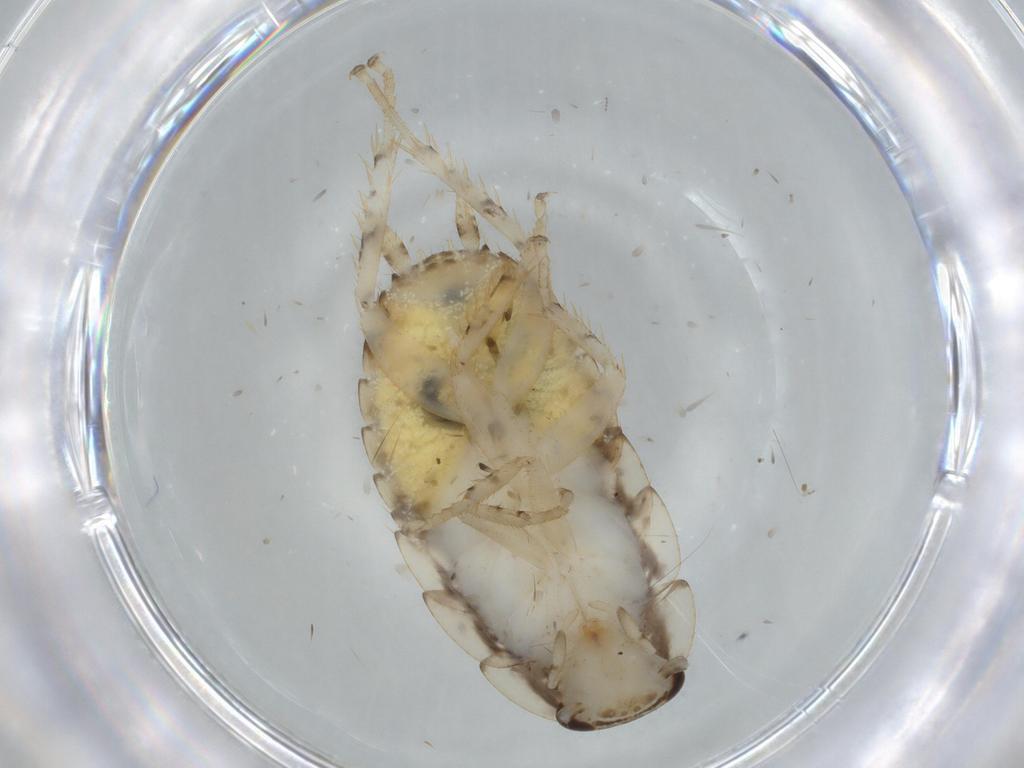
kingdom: Animalia
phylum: Arthropoda
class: Insecta
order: Blattodea
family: Ectobiidae
